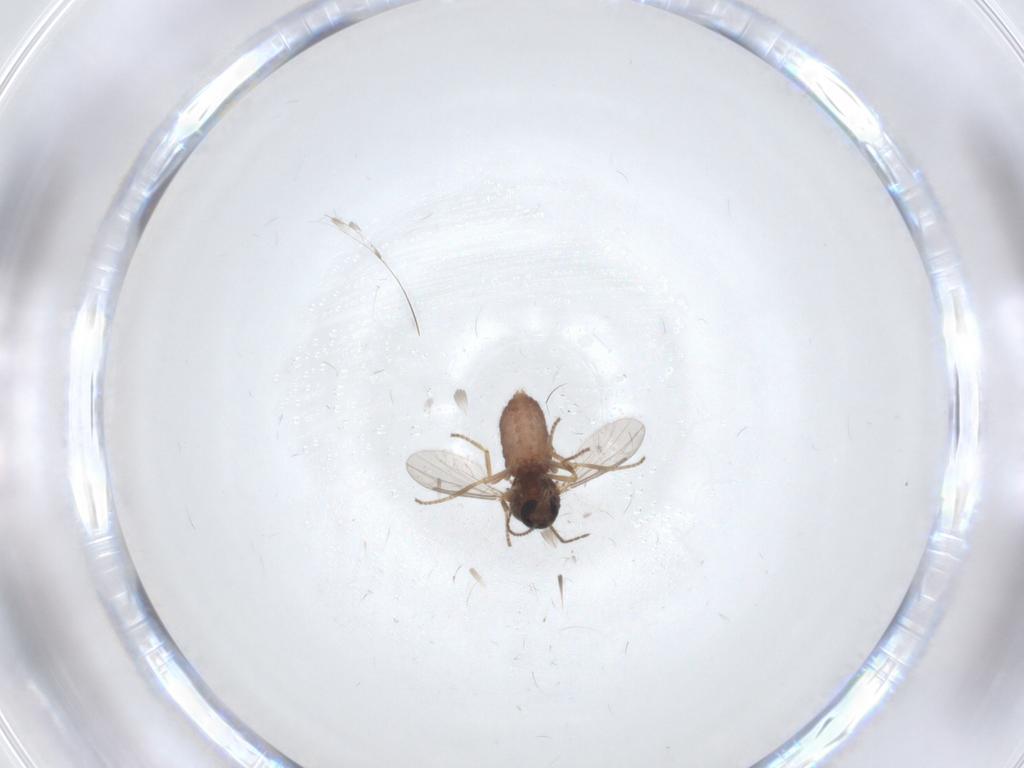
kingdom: Animalia
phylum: Arthropoda
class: Insecta
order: Diptera
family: Ceratopogonidae
